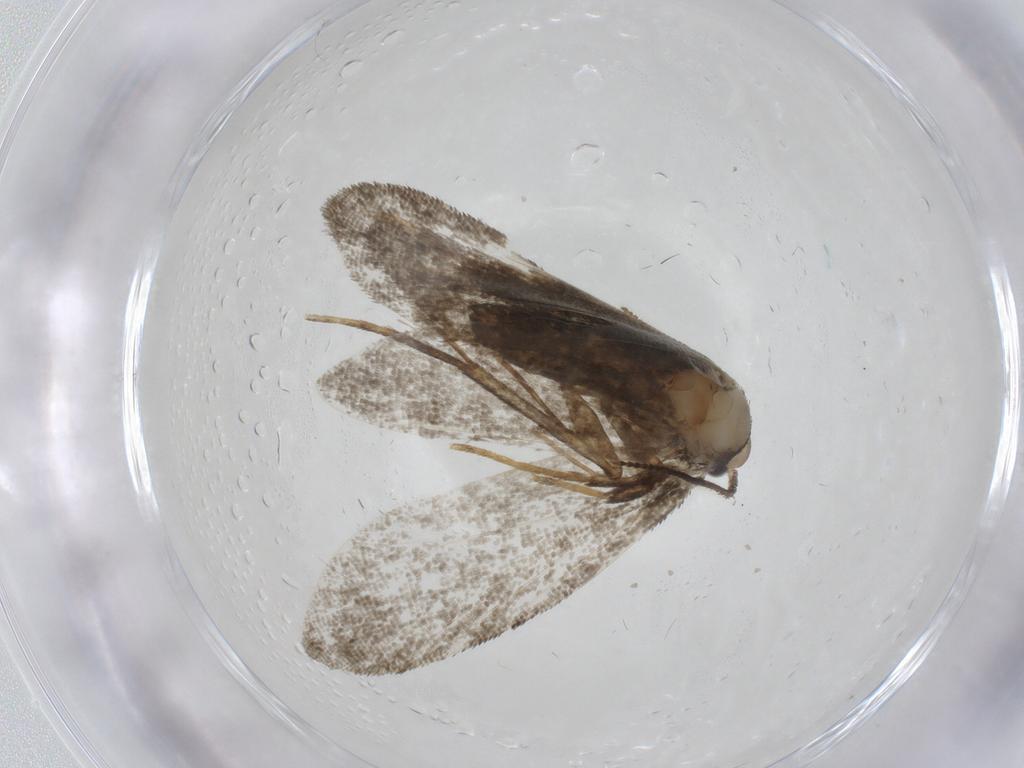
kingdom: Animalia
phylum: Arthropoda
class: Insecta
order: Lepidoptera
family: Psychidae
